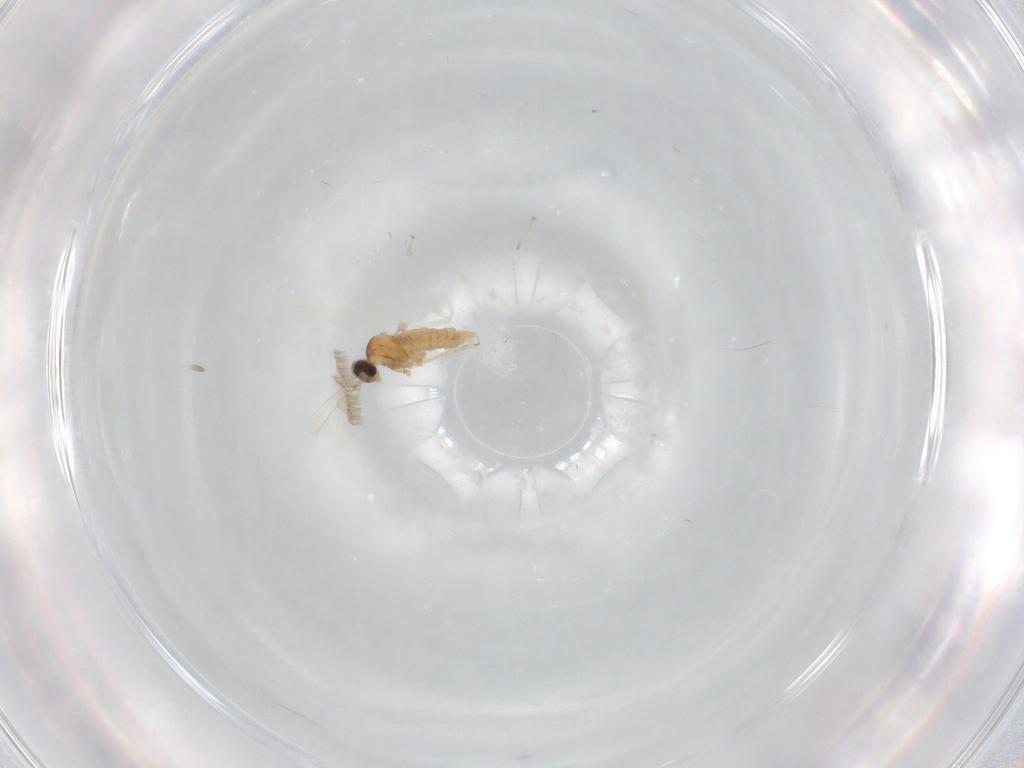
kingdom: Animalia
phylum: Arthropoda
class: Insecta
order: Diptera
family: Cecidomyiidae
